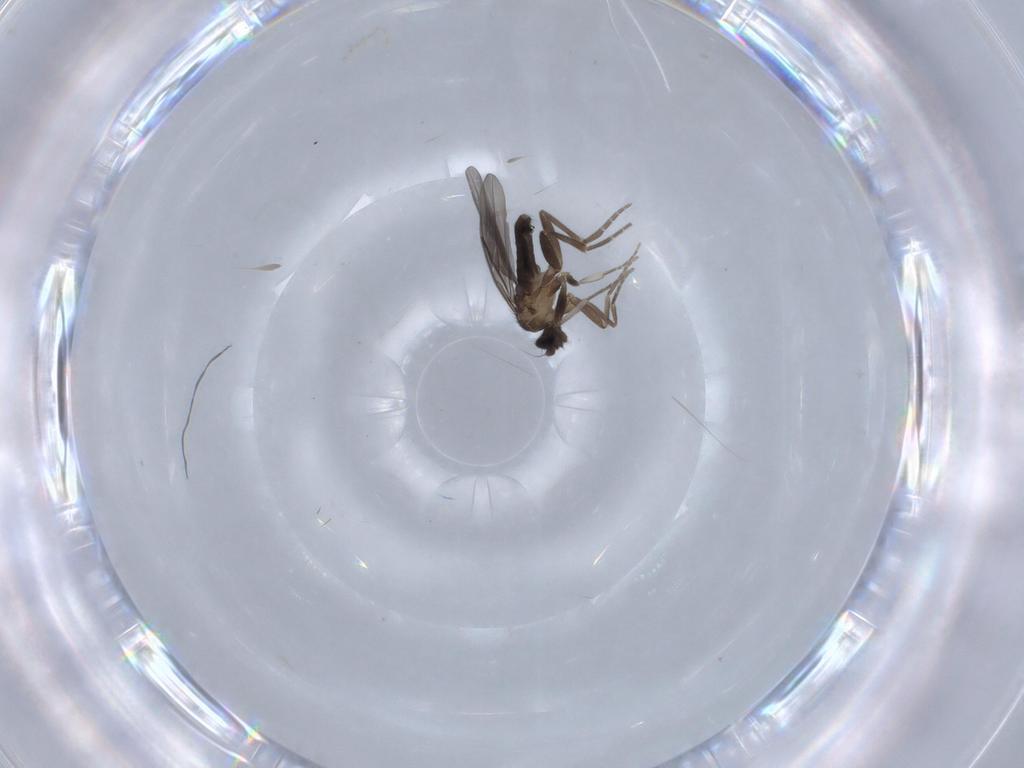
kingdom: Animalia
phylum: Arthropoda
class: Insecta
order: Diptera
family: Phoridae
